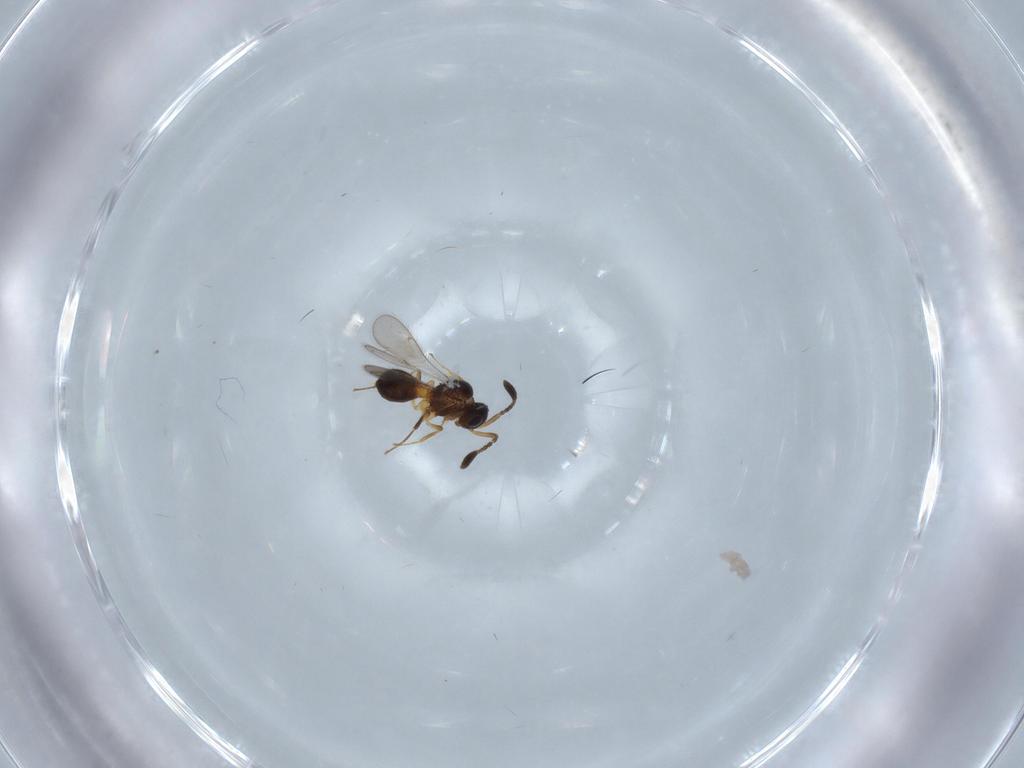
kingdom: Animalia
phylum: Arthropoda
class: Insecta
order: Hymenoptera
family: Scelionidae
